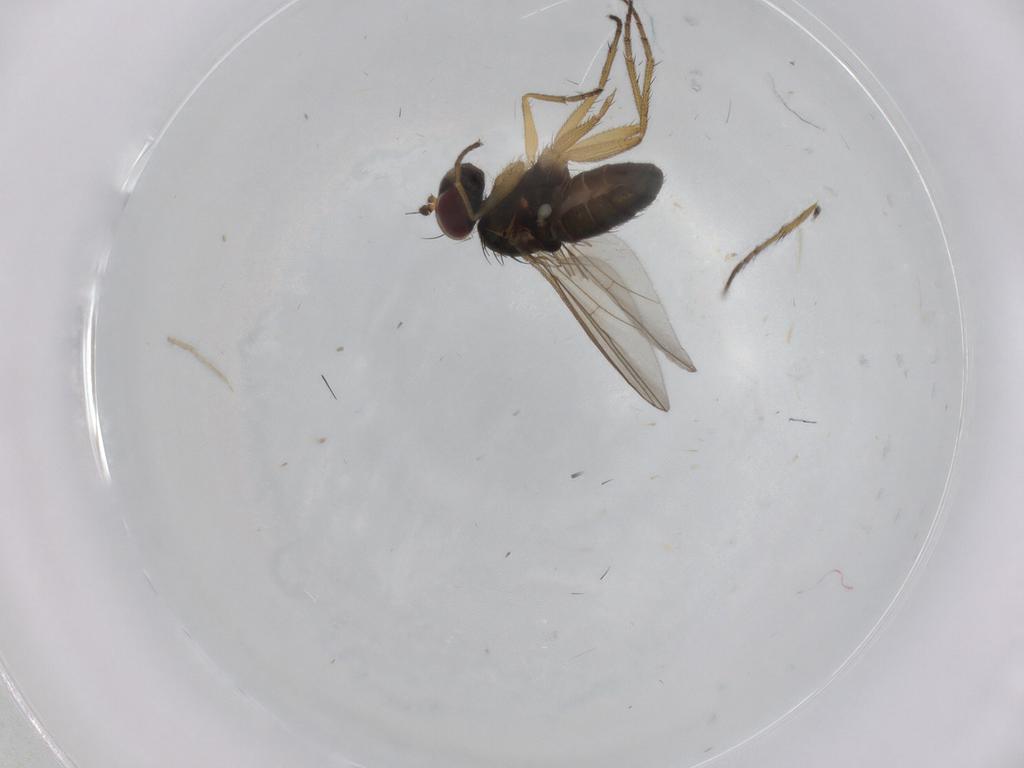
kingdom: Animalia
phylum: Arthropoda
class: Insecta
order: Diptera
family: Dolichopodidae
